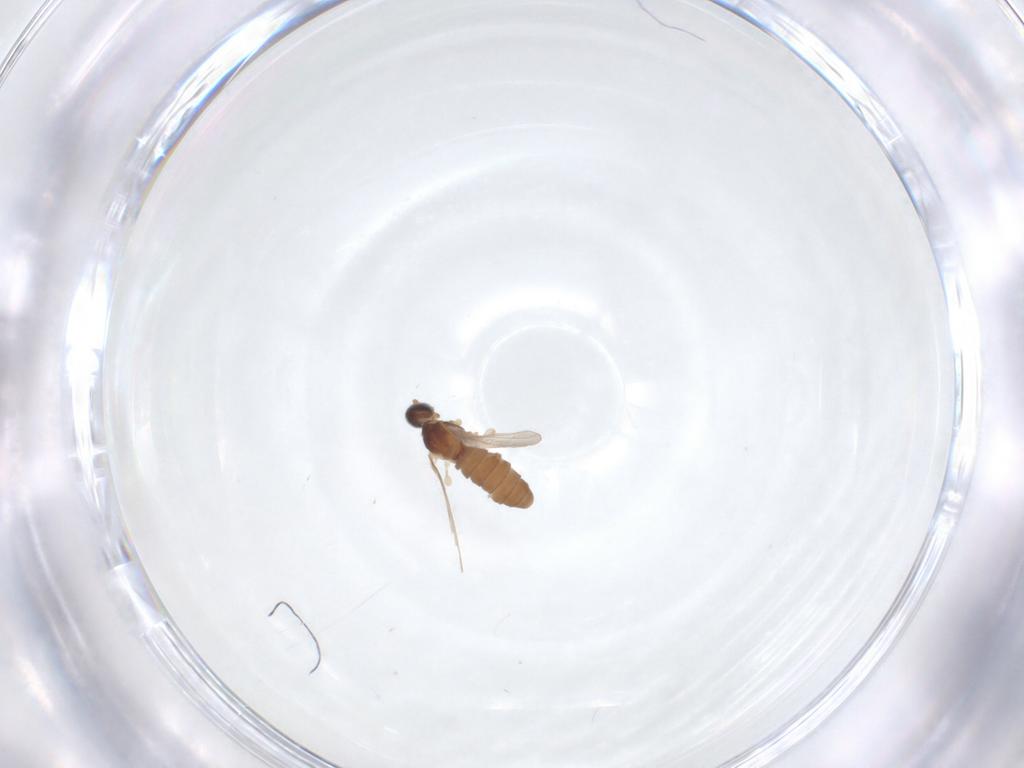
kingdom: Animalia
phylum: Arthropoda
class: Insecta
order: Diptera
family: Cecidomyiidae
